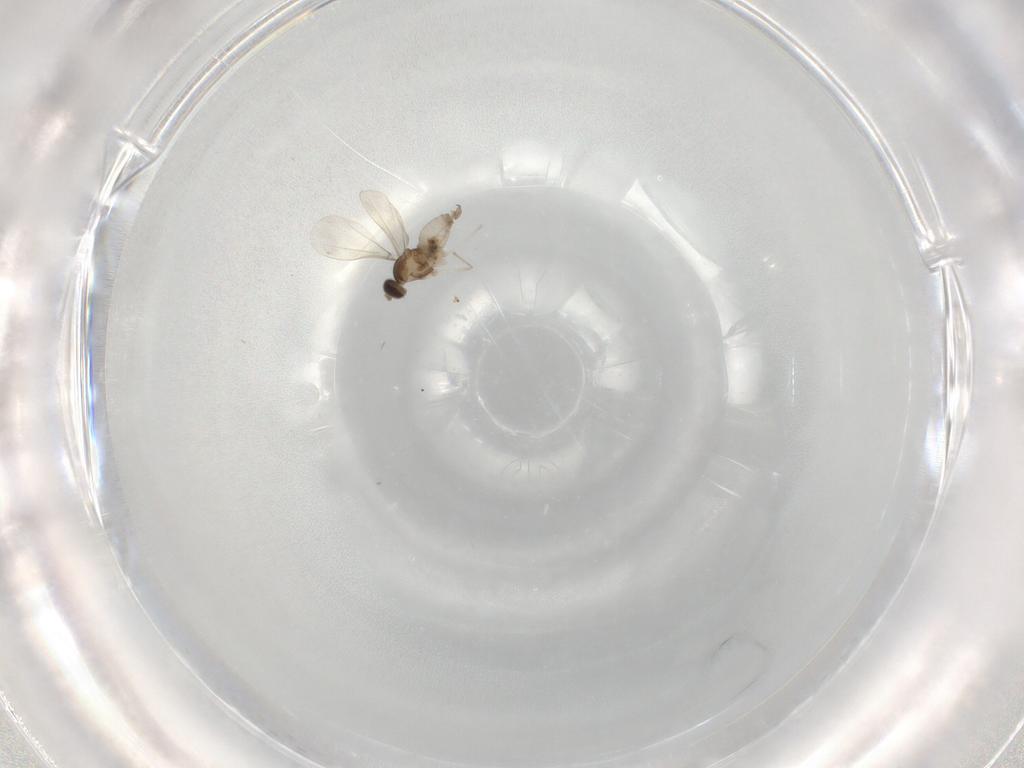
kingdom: Animalia
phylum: Arthropoda
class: Insecta
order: Diptera
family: Cecidomyiidae
